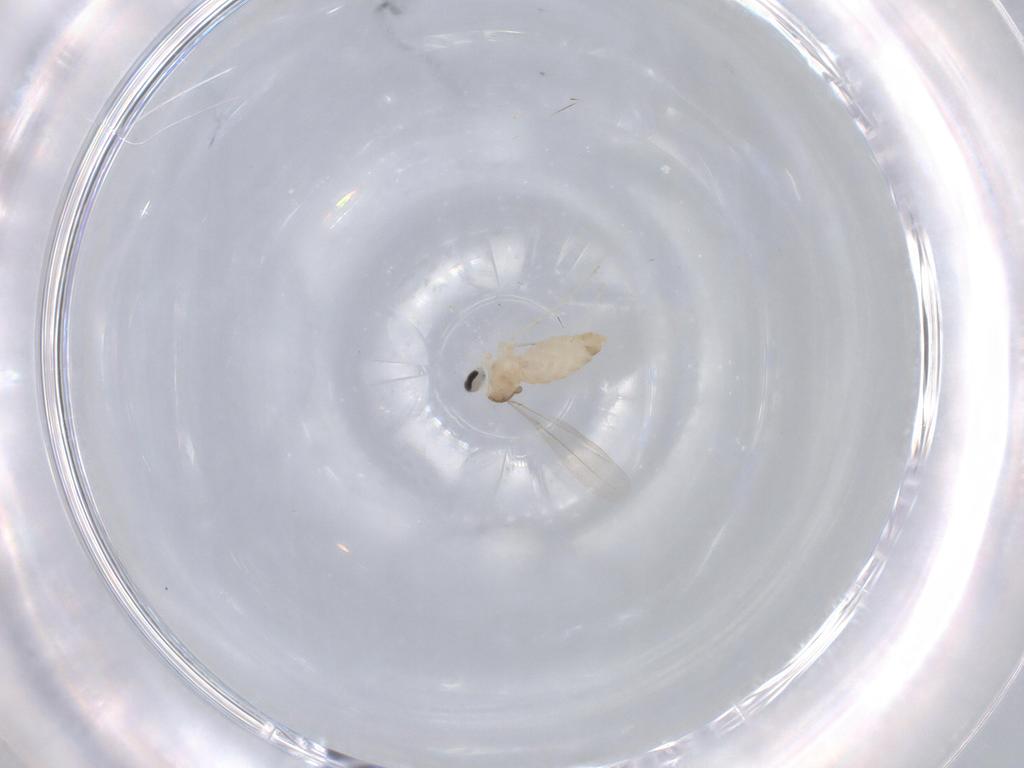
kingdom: Animalia
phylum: Arthropoda
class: Insecta
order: Diptera
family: Cecidomyiidae
